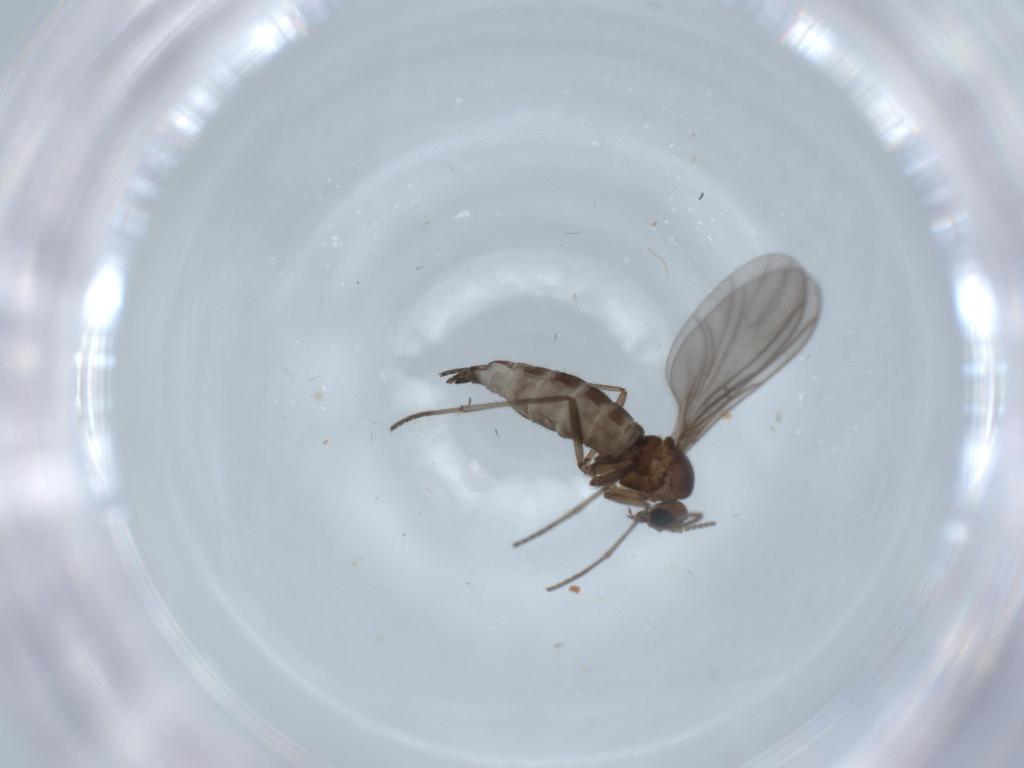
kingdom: Animalia
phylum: Arthropoda
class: Insecta
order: Diptera
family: Sciaridae
